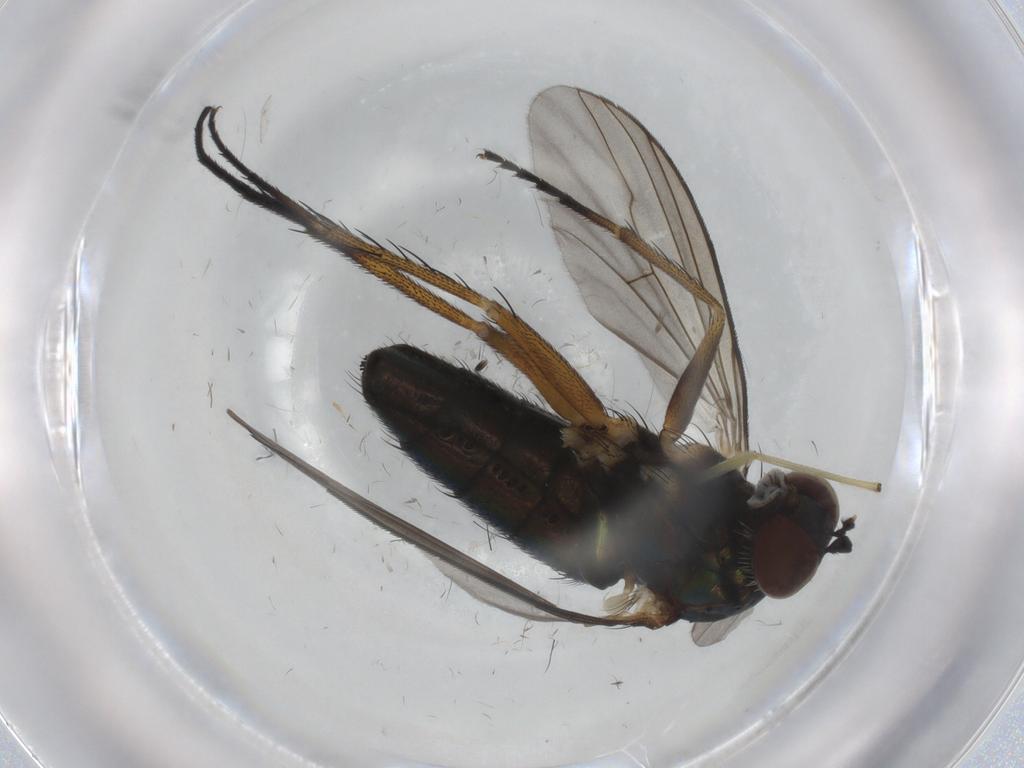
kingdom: Animalia
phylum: Arthropoda
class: Insecta
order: Diptera
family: Dolichopodidae
